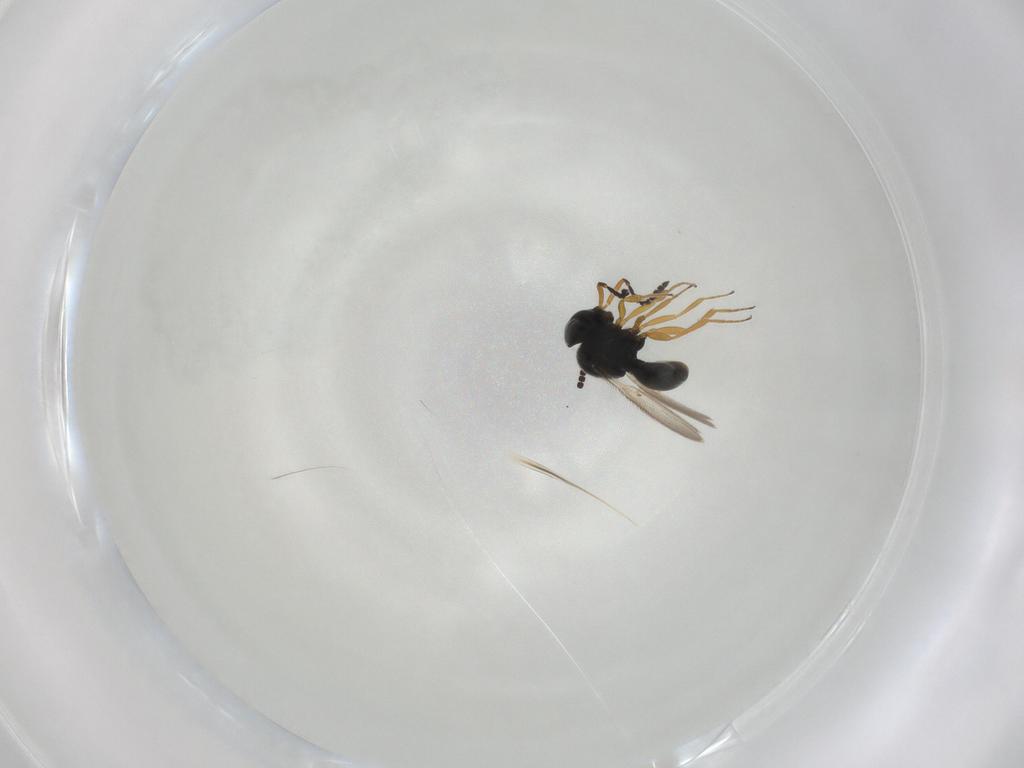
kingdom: Animalia
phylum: Arthropoda
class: Insecta
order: Hymenoptera
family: Scelionidae
